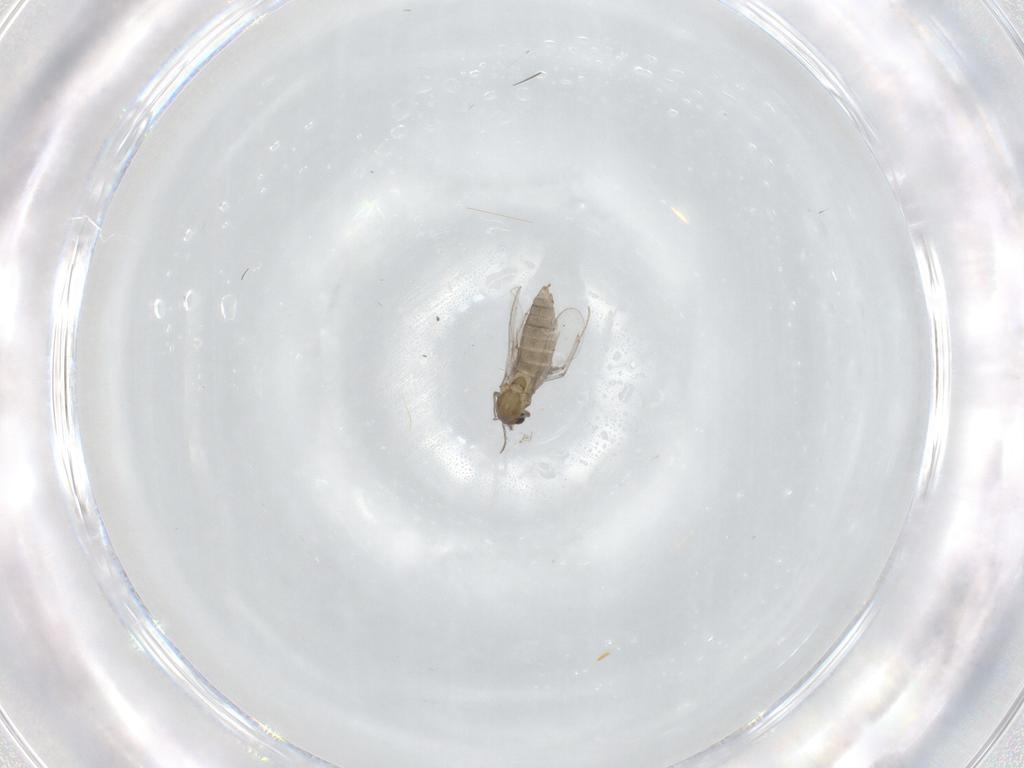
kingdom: Animalia
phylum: Arthropoda
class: Insecta
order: Diptera
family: Chironomidae
